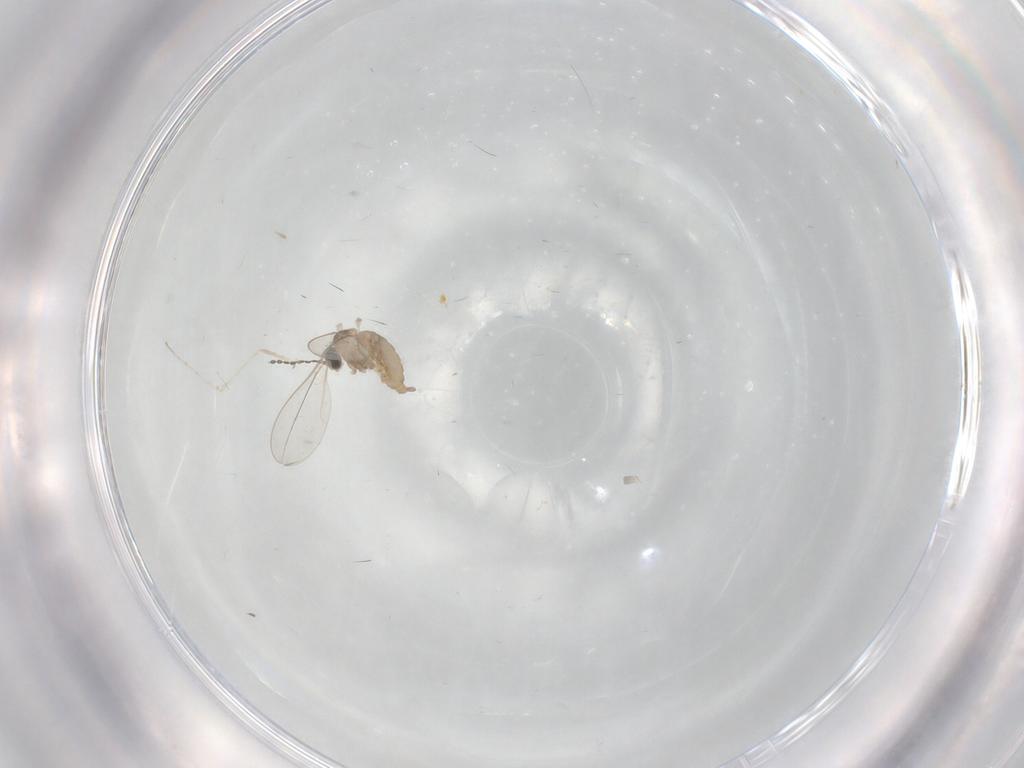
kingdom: Animalia
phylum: Arthropoda
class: Insecta
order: Diptera
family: Cecidomyiidae
